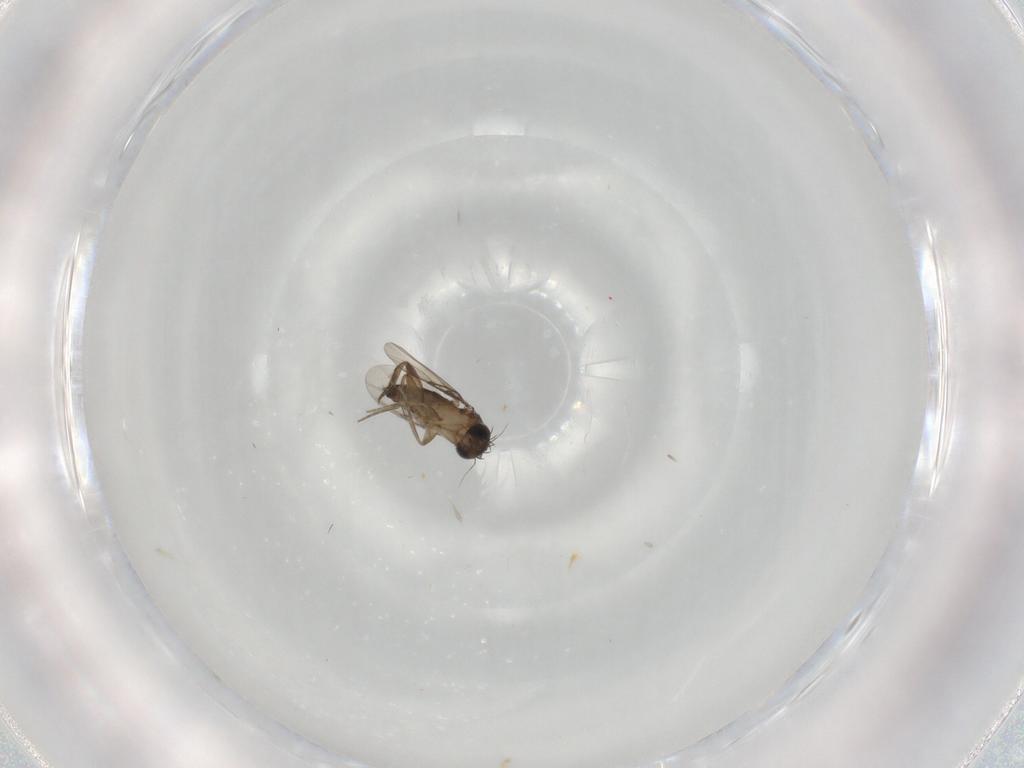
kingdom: Animalia
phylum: Arthropoda
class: Insecta
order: Diptera
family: Phoridae
